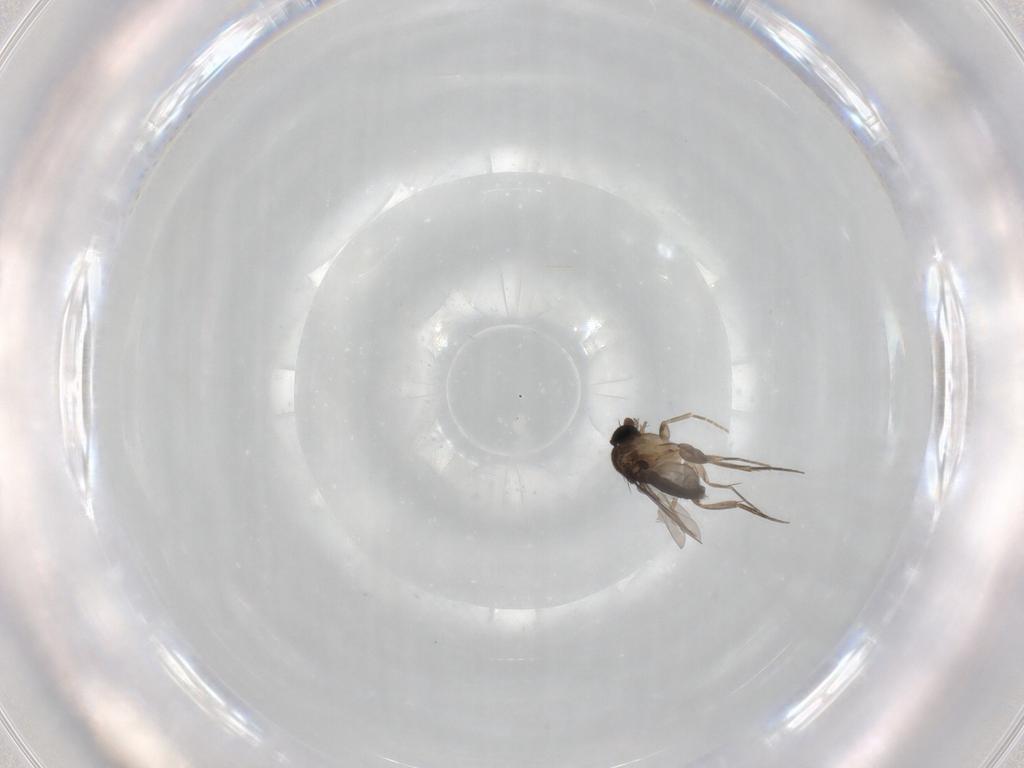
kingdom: Animalia
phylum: Arthropoda
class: Insecta
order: Diptera
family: Phoridae
